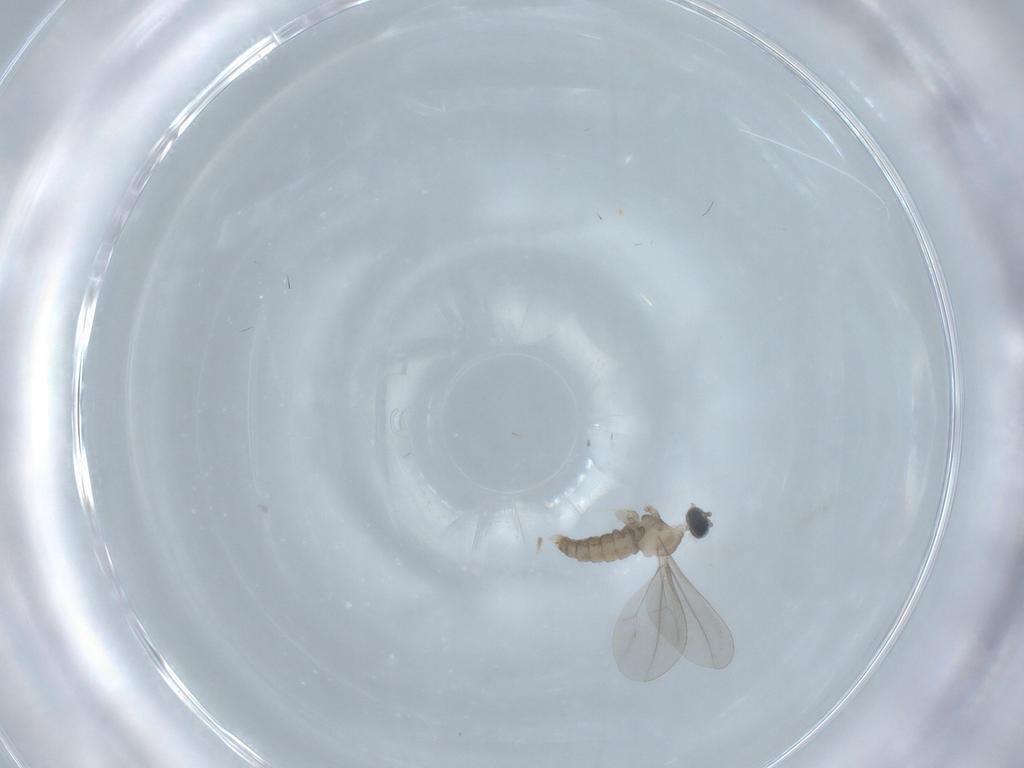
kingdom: Animalia
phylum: Arthropoda
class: Insecta
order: Diptera
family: Cecidomyiidae
